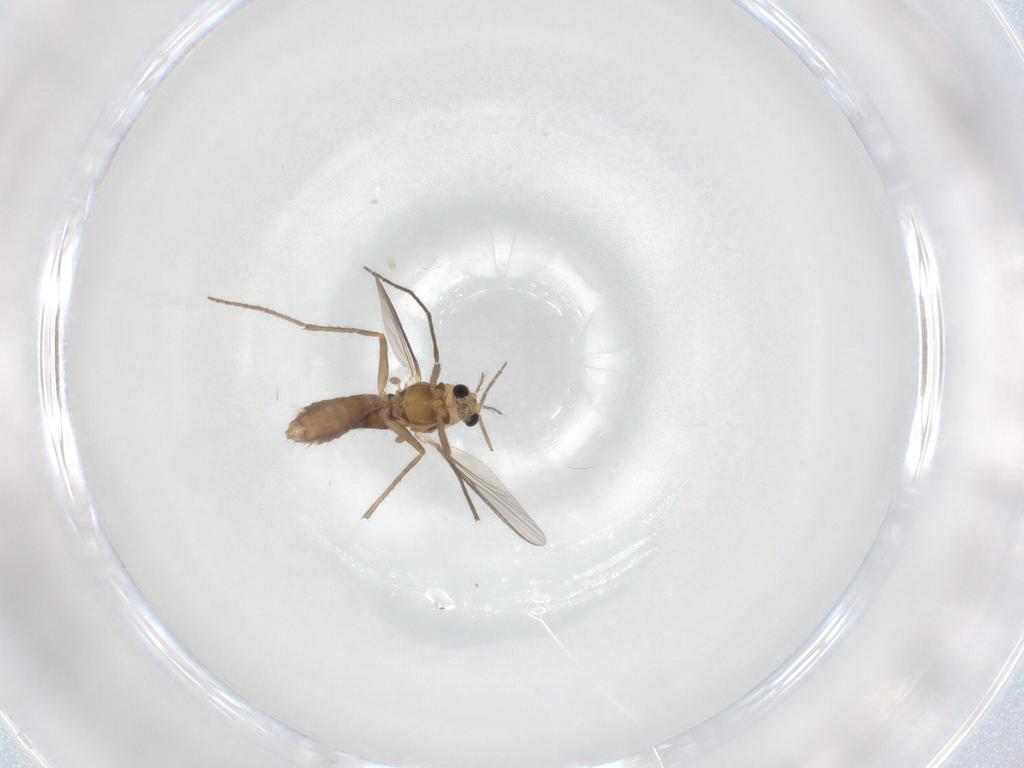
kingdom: Animalia
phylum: Arthropoda
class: Insecta
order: Diptera
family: Chironomidae
